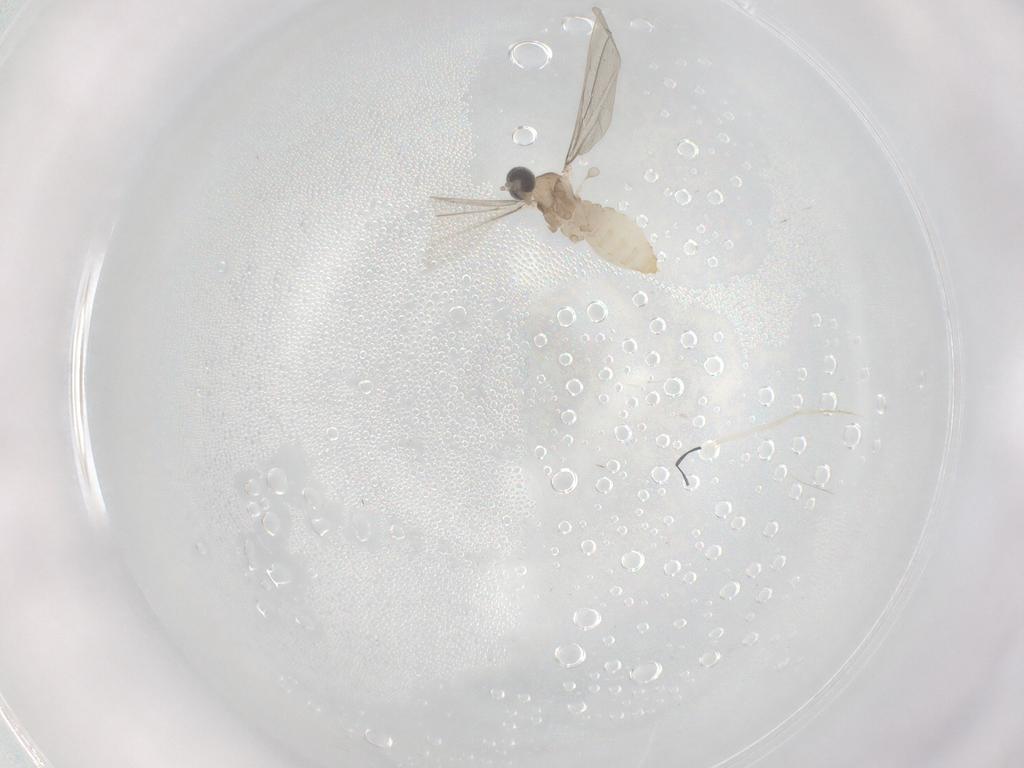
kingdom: Animalia
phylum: Arthropoda
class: Insecta
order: Diptera
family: Cecidomyiidae
